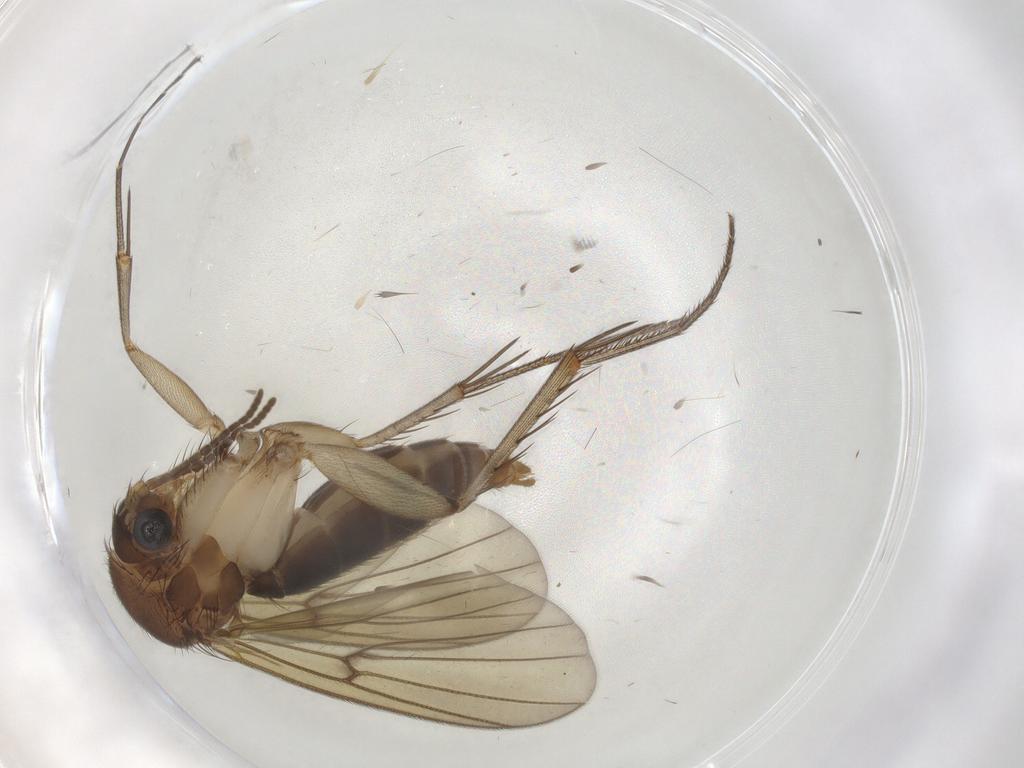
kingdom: Animalia
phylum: Arthropoda
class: Insecta
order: Diptera
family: Mycetophilidae
